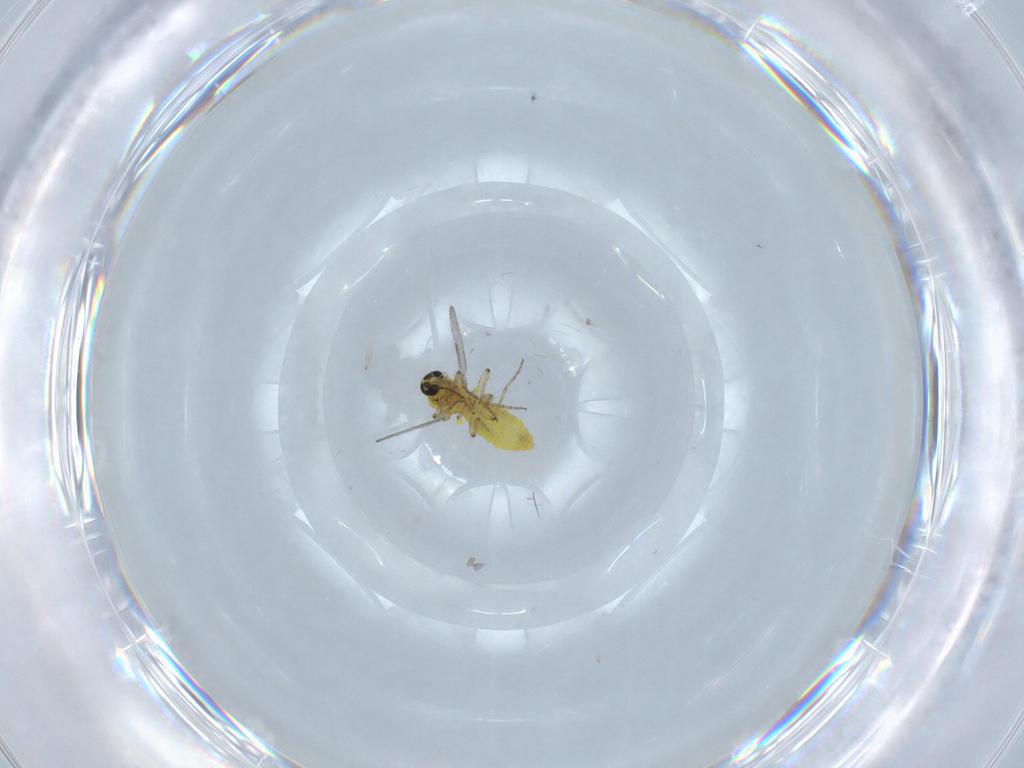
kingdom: Animalia
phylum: Arthropoda
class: Insecta
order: Diptera
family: Ceratopogonidae
